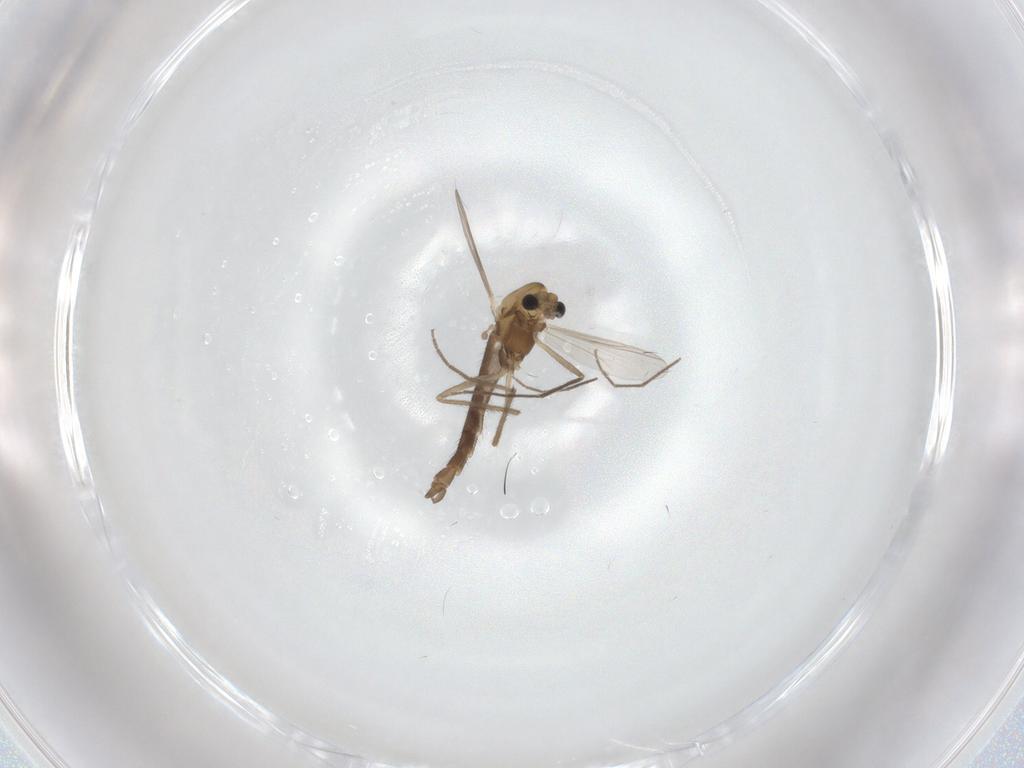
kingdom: Animalia
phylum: Arthropoda
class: Insecta
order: Diptera
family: Chironomidae
